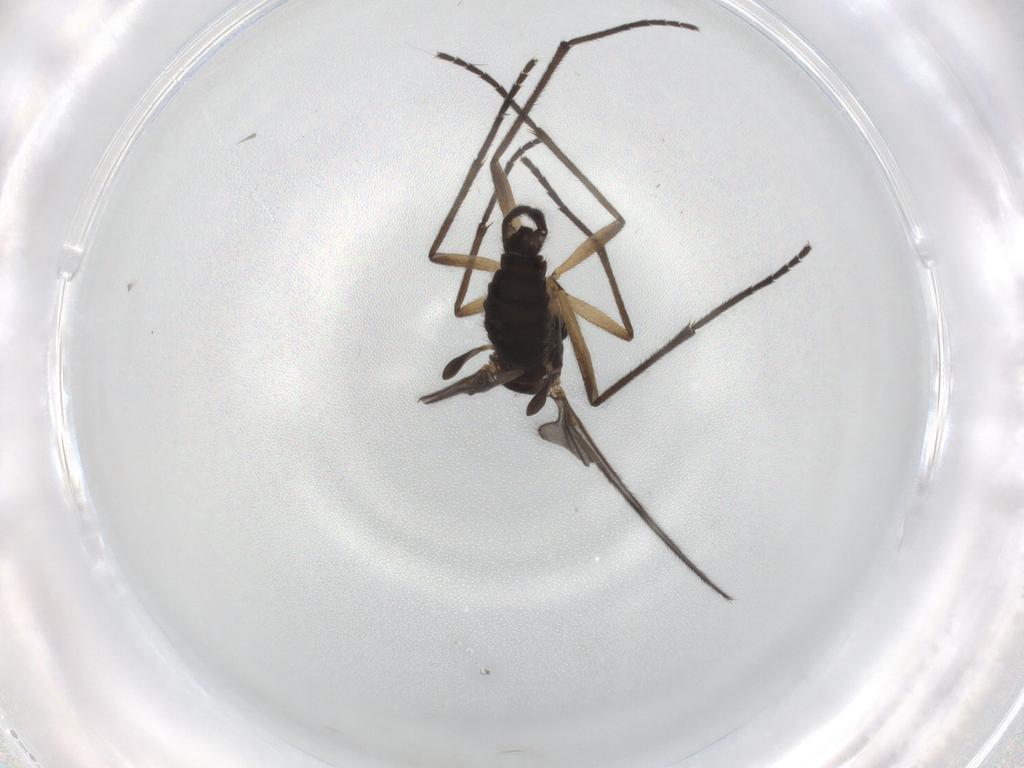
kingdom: Animalia
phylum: Arthropoda
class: Insecta
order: Diptera
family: Sciaridae
